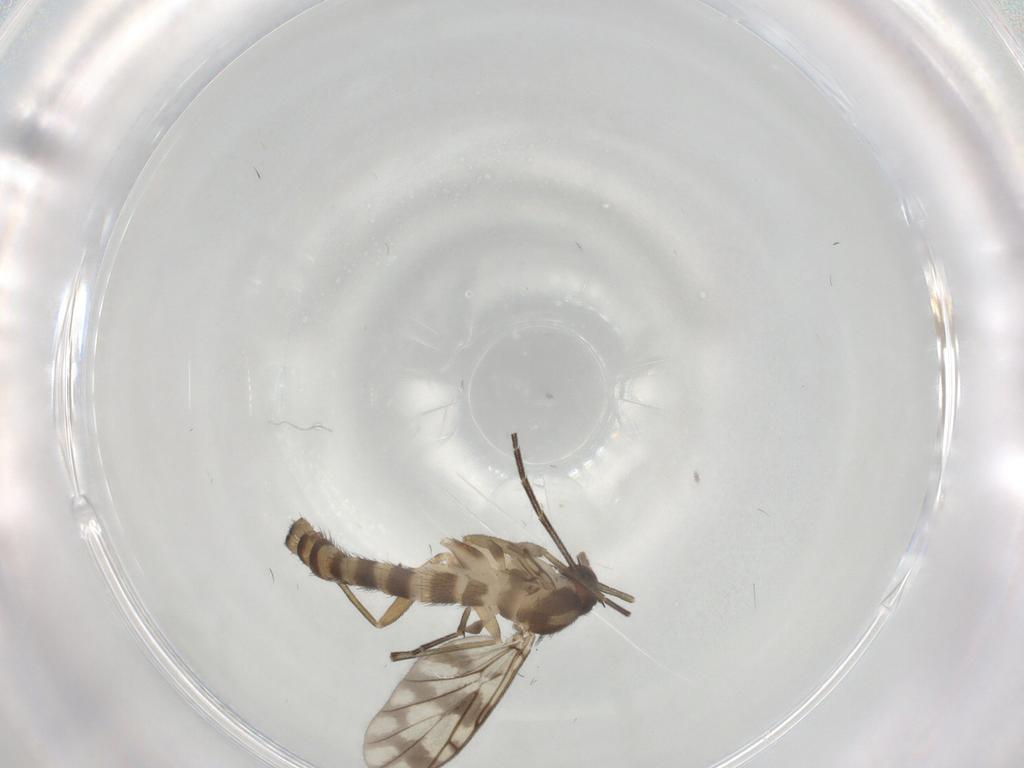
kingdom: Animalia
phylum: Arthropoda
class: Insecta
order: Diptera
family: Keroplatidae
